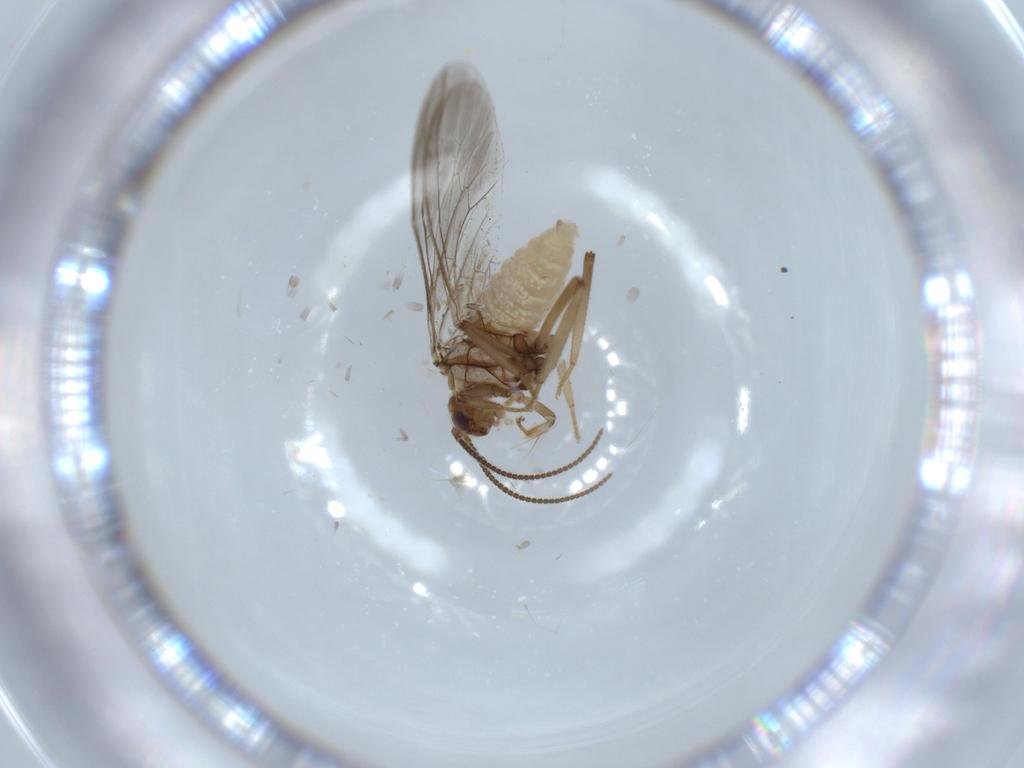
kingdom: Animalia
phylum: Arthropoda
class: Insecta
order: Neuroptera
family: Coniopterygidae
